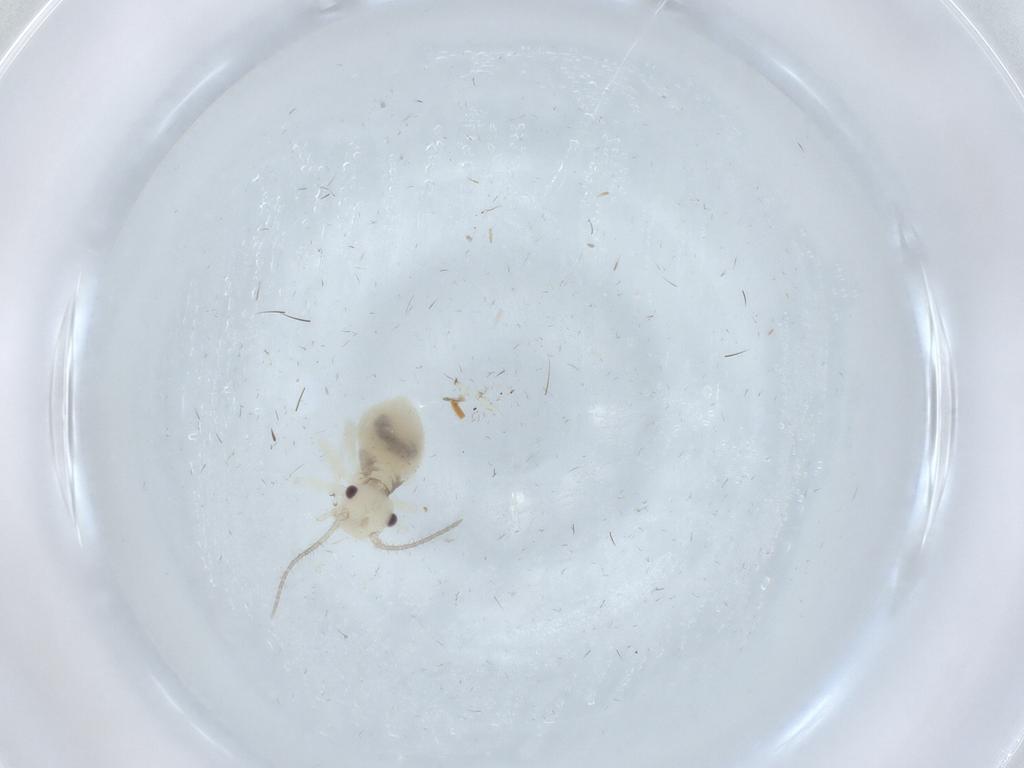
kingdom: Animalia
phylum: Arthropoda
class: Insecta
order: Psocodea
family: Amphipsocidae
